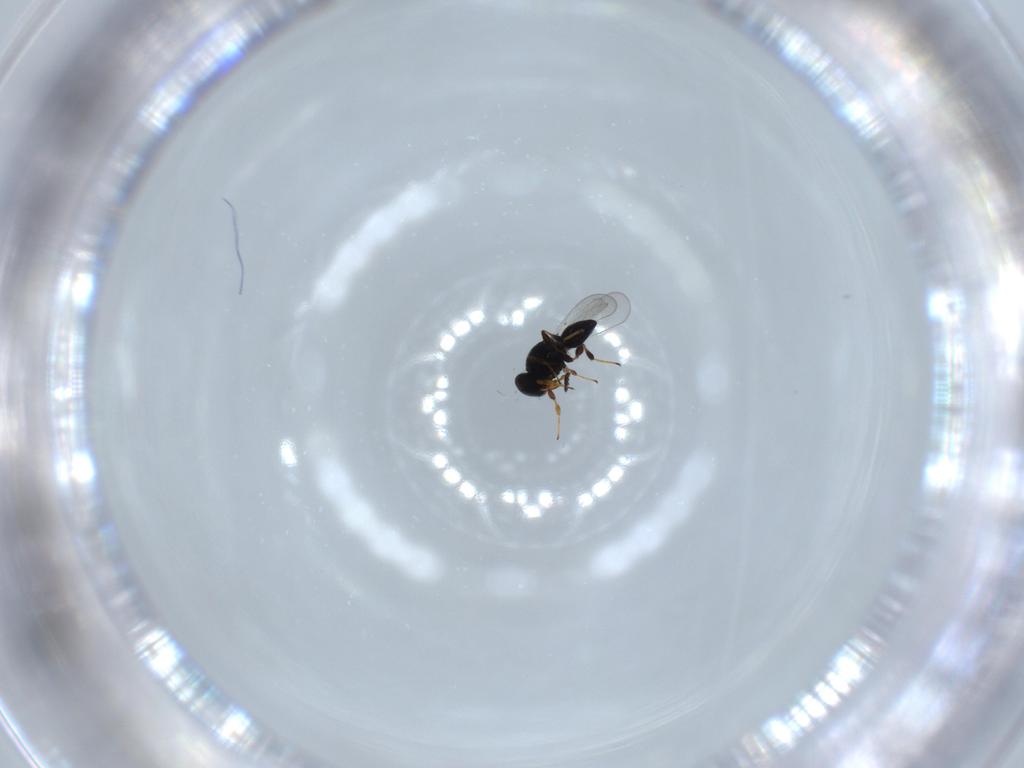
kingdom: Animalia
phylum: Arthropoda
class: Insecta
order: Hymenoptera
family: Platygastridae
